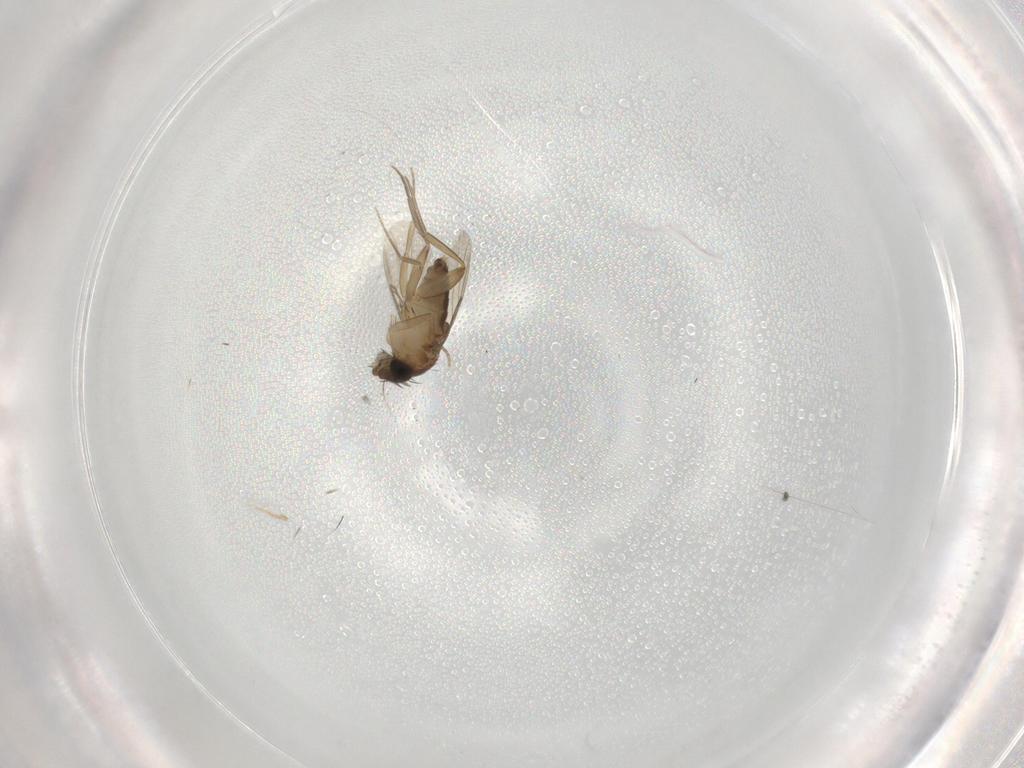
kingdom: Animalia
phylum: Arthropoda
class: Insecta
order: Diptera
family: Phoridae
